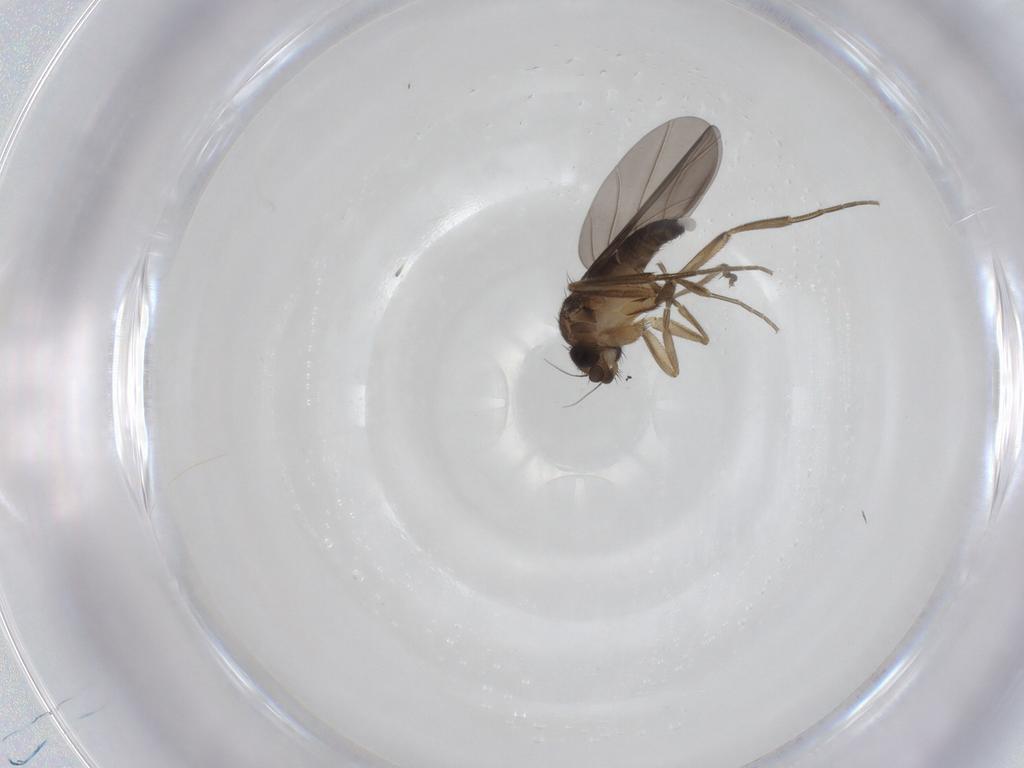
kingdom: Animalia
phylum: Arthropoda
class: Insecta
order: Diptera
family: Phoridae
